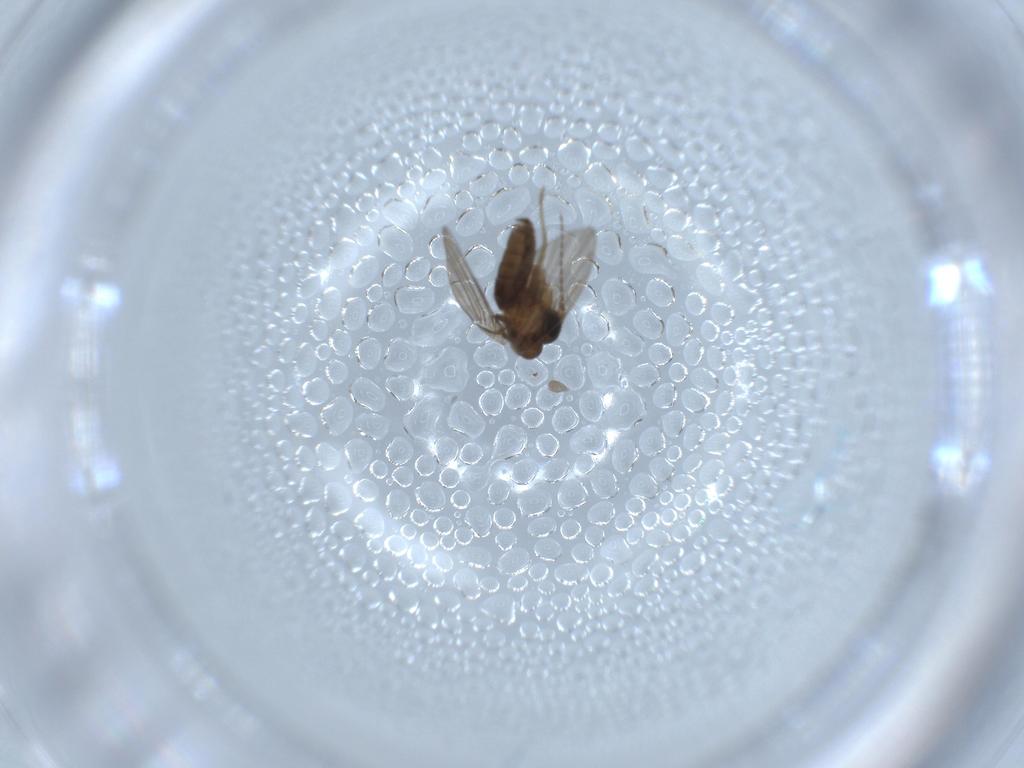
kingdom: Animalia
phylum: Arthropoda
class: Insecta
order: Diptera
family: Psychodidae
